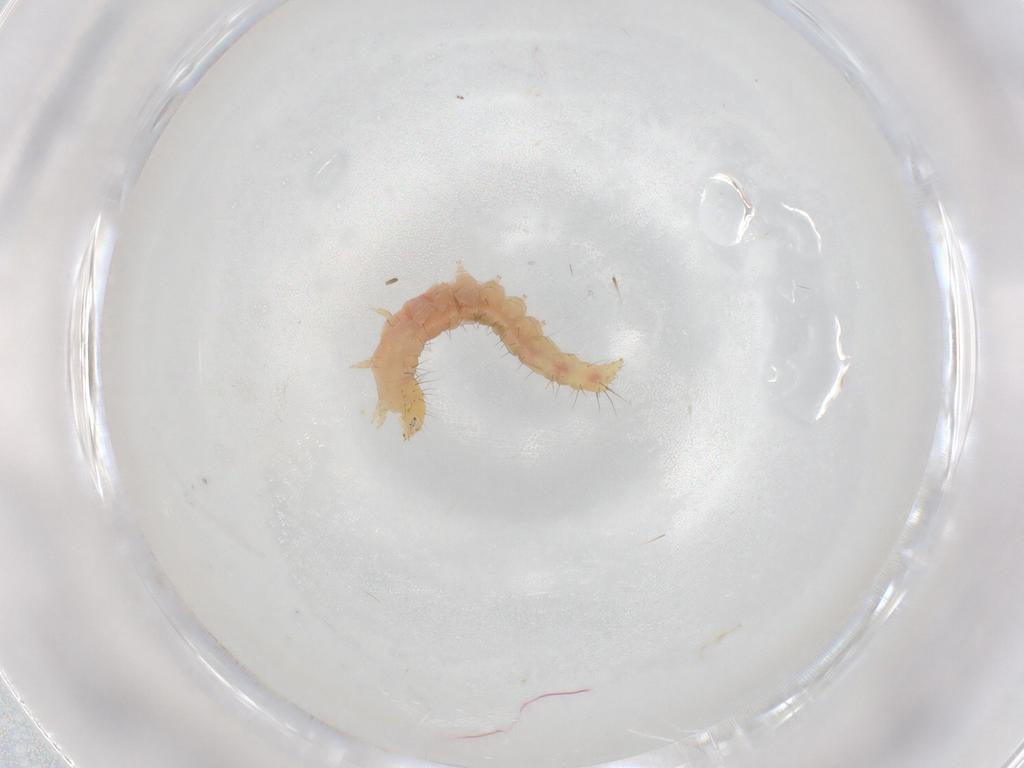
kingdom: Animalia
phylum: Arthropoda
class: Insecta
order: Lepidoptera
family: Gelechiidae
